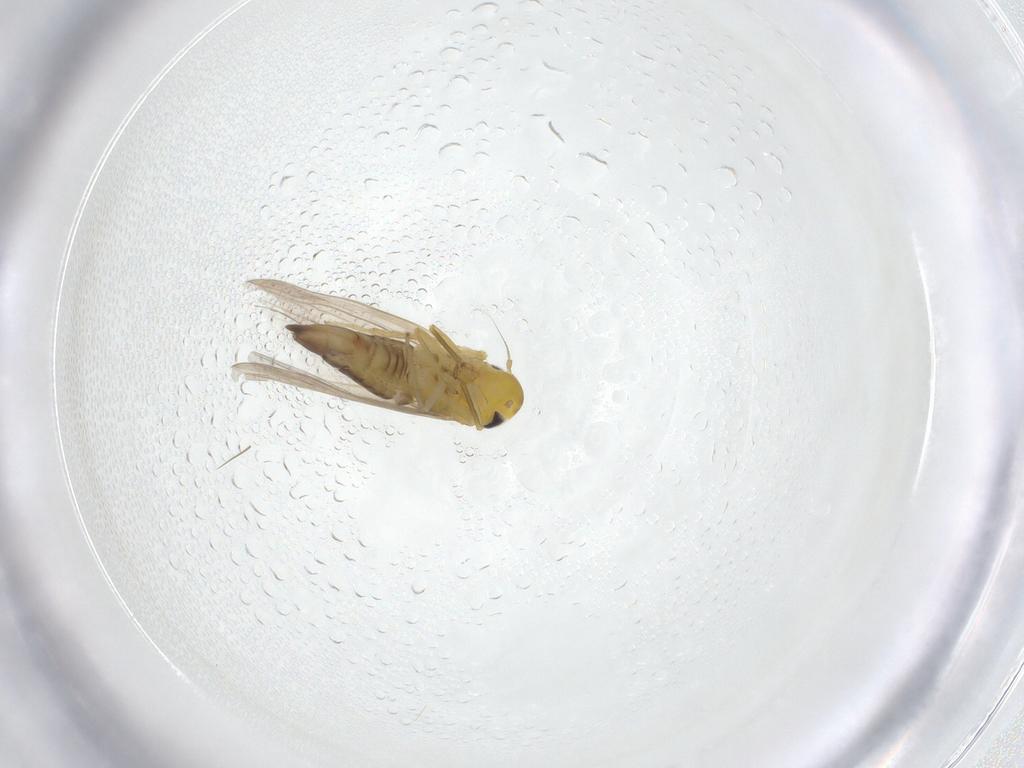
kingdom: Animalia
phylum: Arthropoda
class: Insecta
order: Hemiptera
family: Cicadellidae
